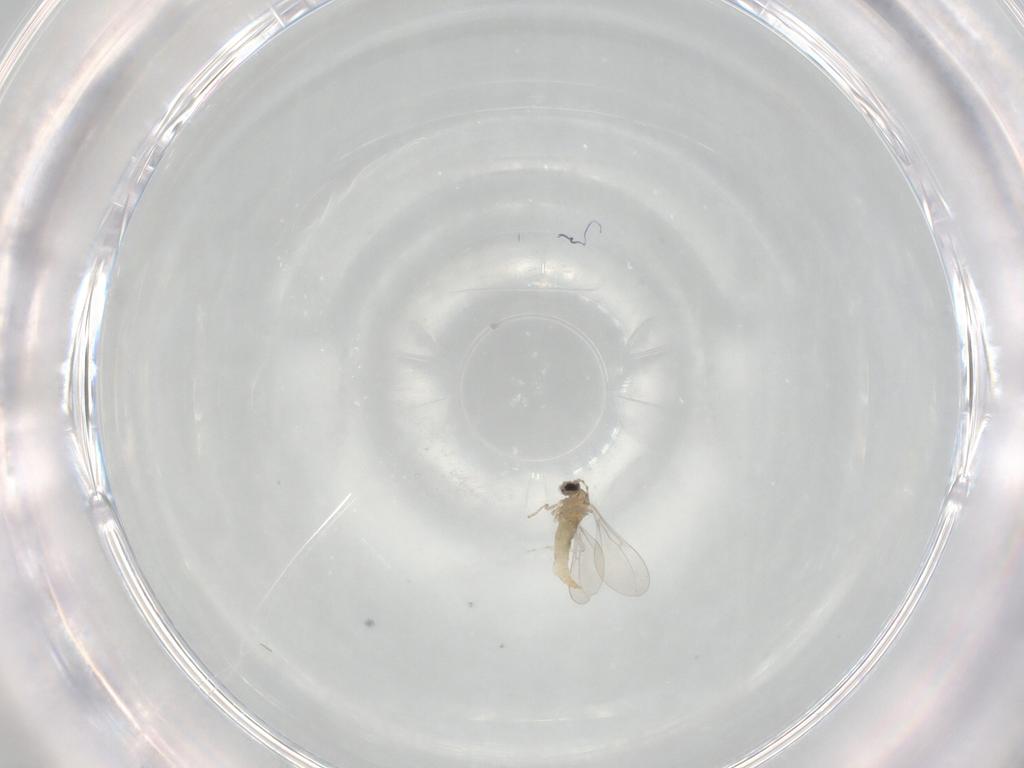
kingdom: Animalia
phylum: Arthropoda
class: Insecta
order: Diptera
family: Cecidomyiidae
